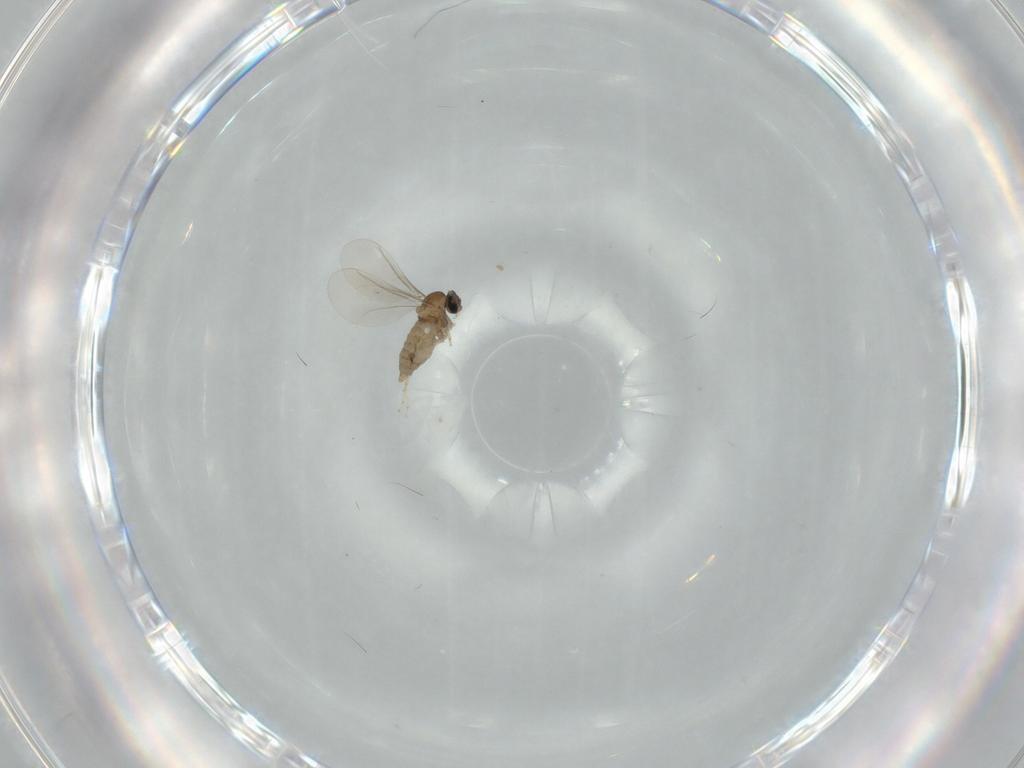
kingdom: Animalia
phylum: Arthropoda
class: Insecta
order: Diptera
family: Cecidomyiidae
